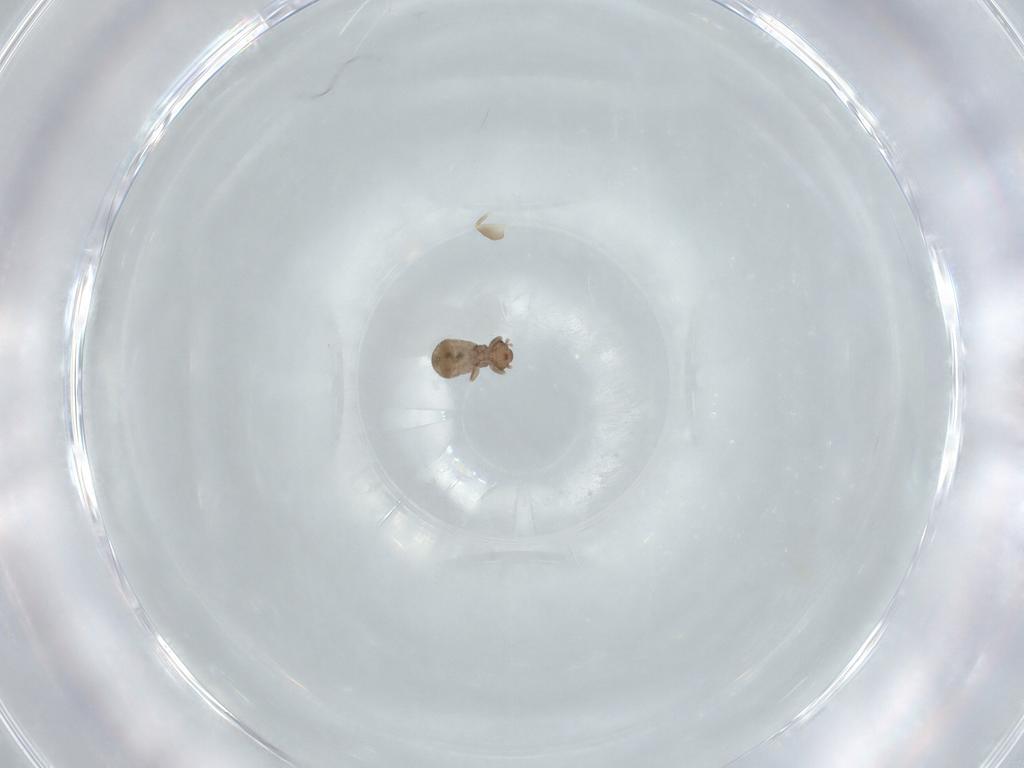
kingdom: Animalia
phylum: Arthropoda
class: Insecta
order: Psocodea
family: Liposcelididae
